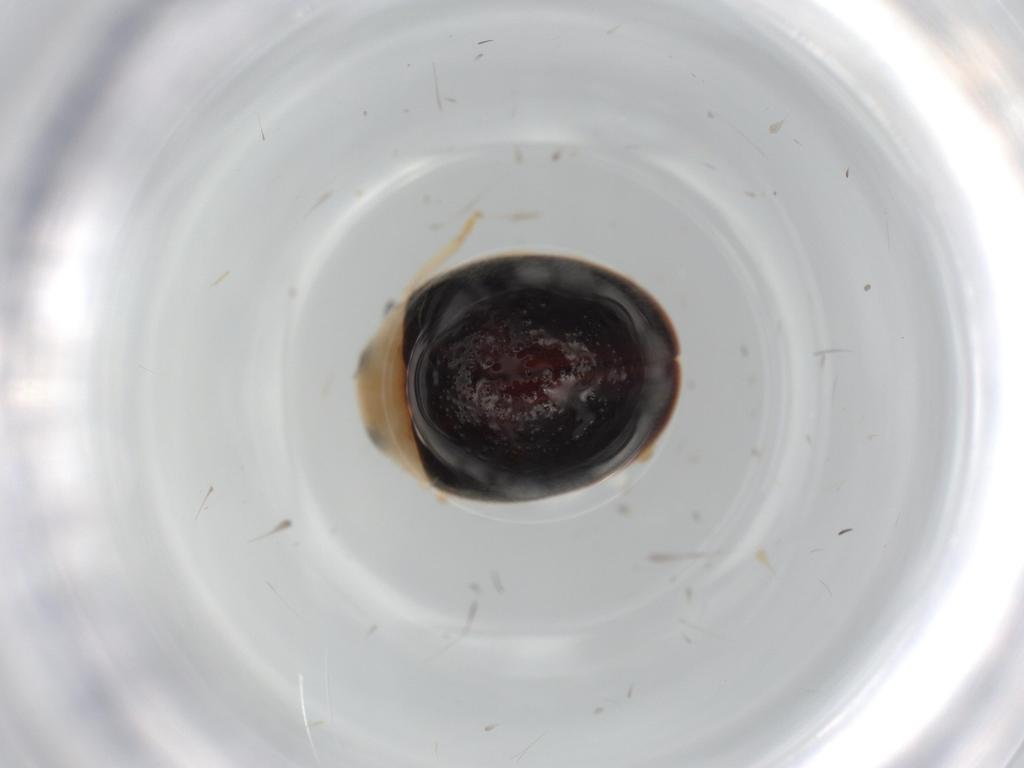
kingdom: Animalia
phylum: Arthropoda
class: Insecta
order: Coleoptera
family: Coccinellidae
